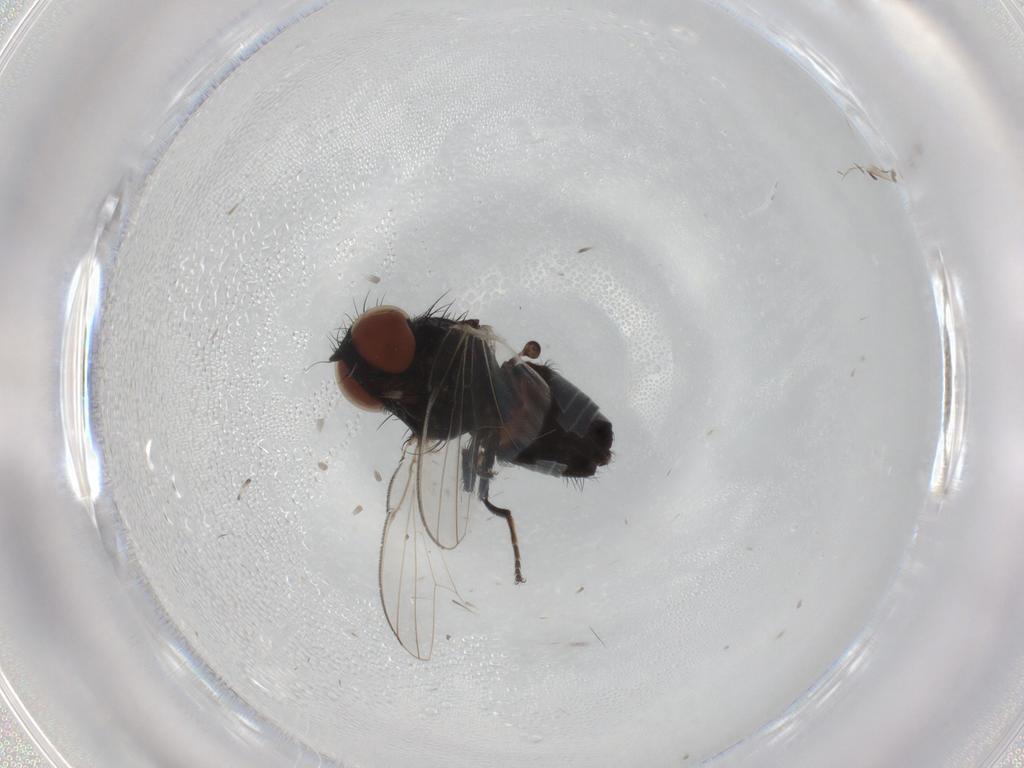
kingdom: Animalia
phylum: Arthropoda
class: Insecta
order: Diptera
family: Milichiidae
